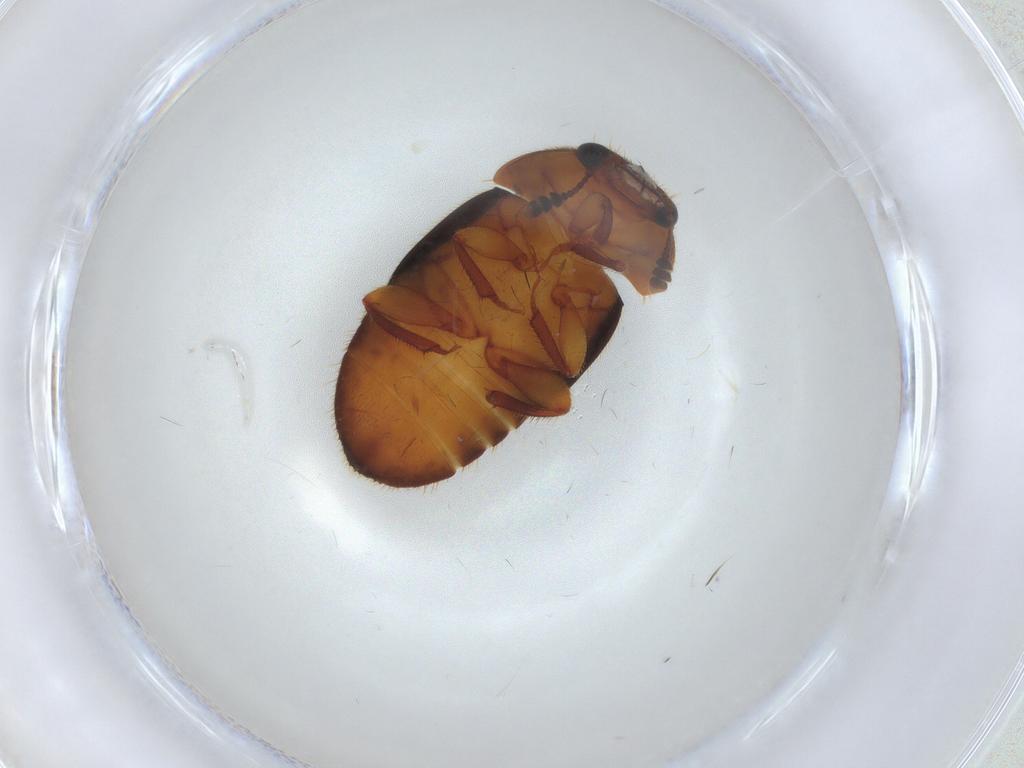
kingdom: Animalia
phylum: Arthropoda
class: Insecta
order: Coleoptera
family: Nitidulidae
